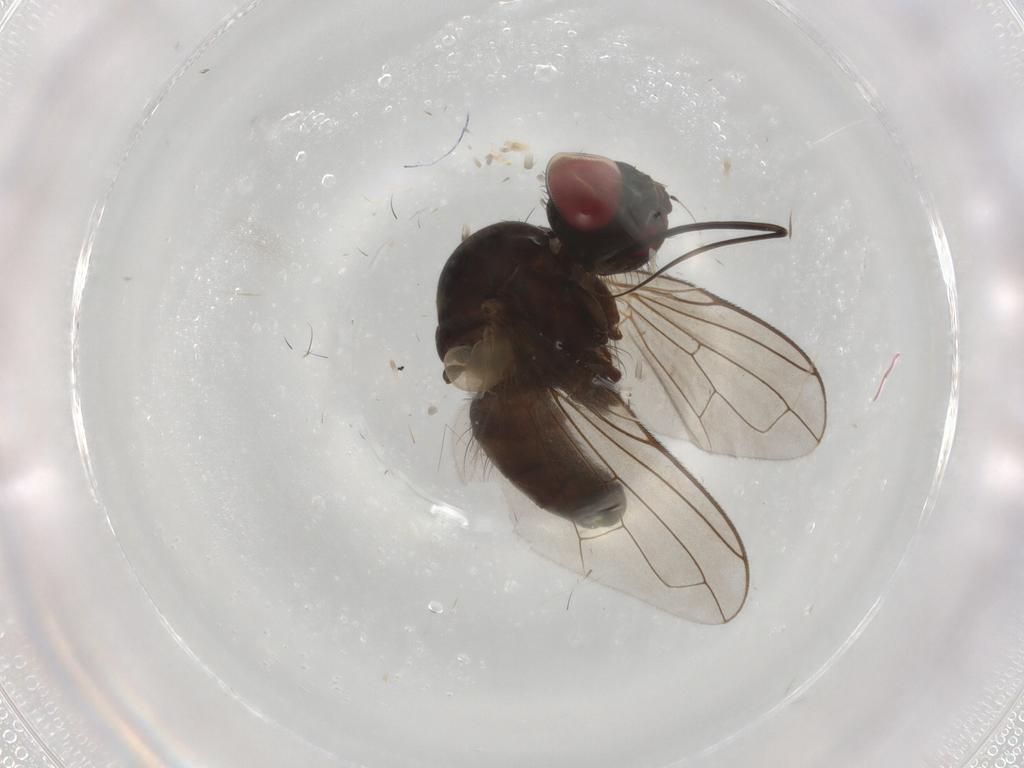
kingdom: Animalia
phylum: Arthropoda
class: Insecta
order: Diptera
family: Tachinidae
